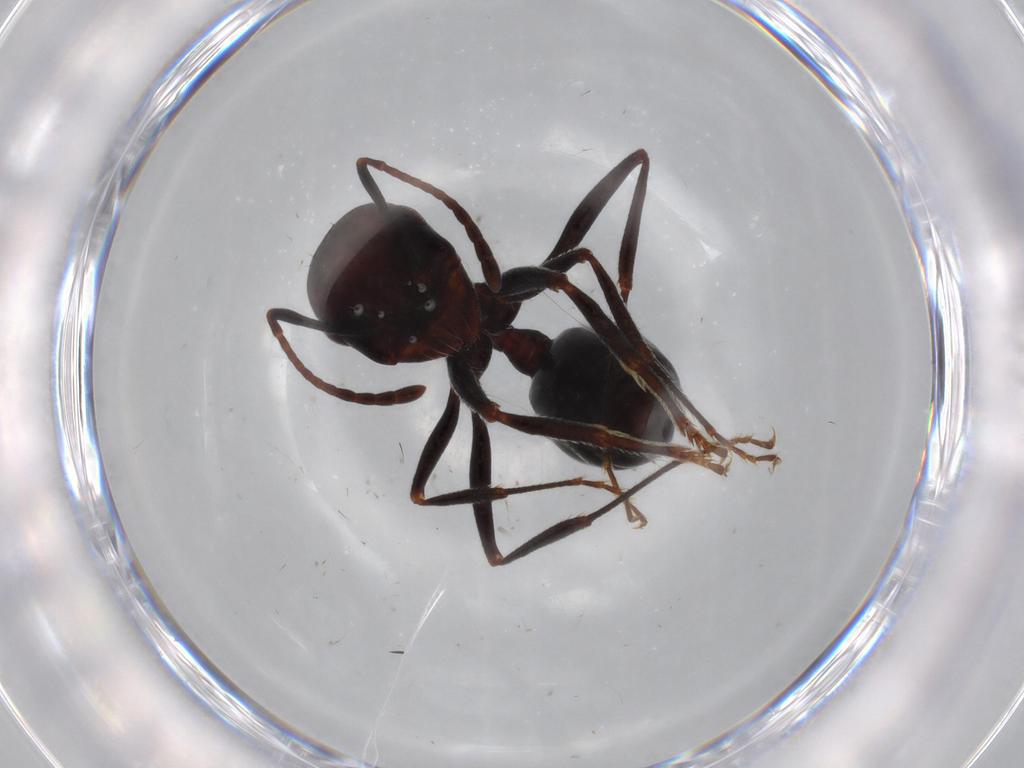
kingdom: Animalia
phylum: Arthropoda
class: Insecta
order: Hymenoptera
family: Formicidae
